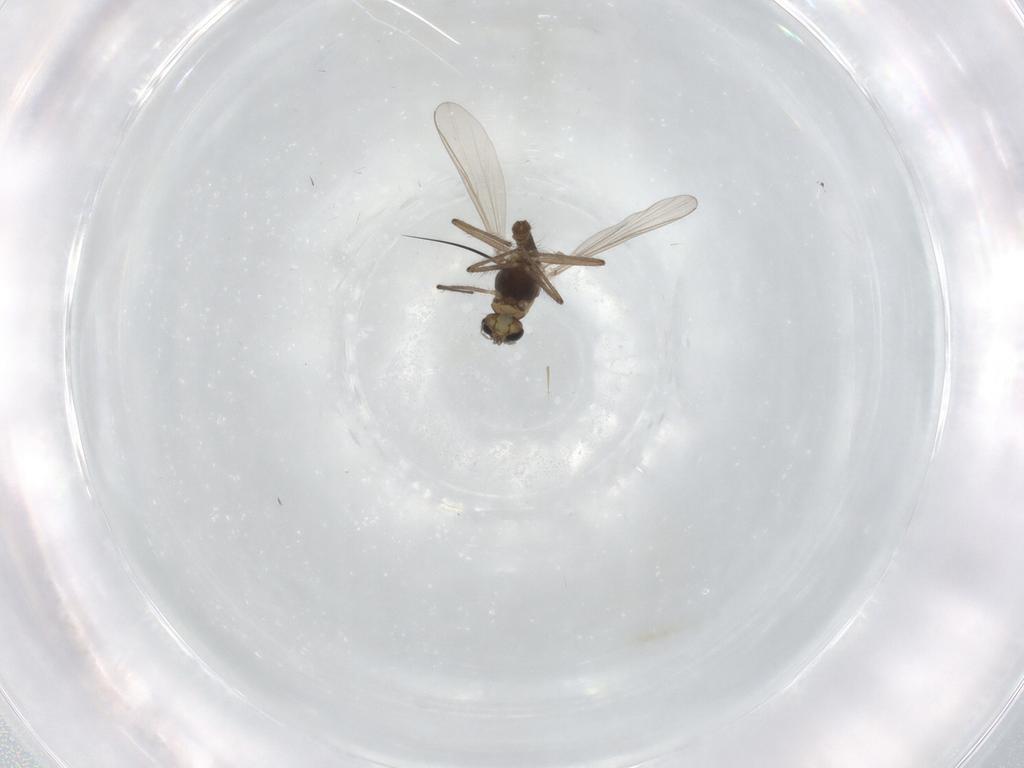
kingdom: Animalia
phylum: Arthropoda
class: Insecta
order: Diptera
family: Chironomidae
